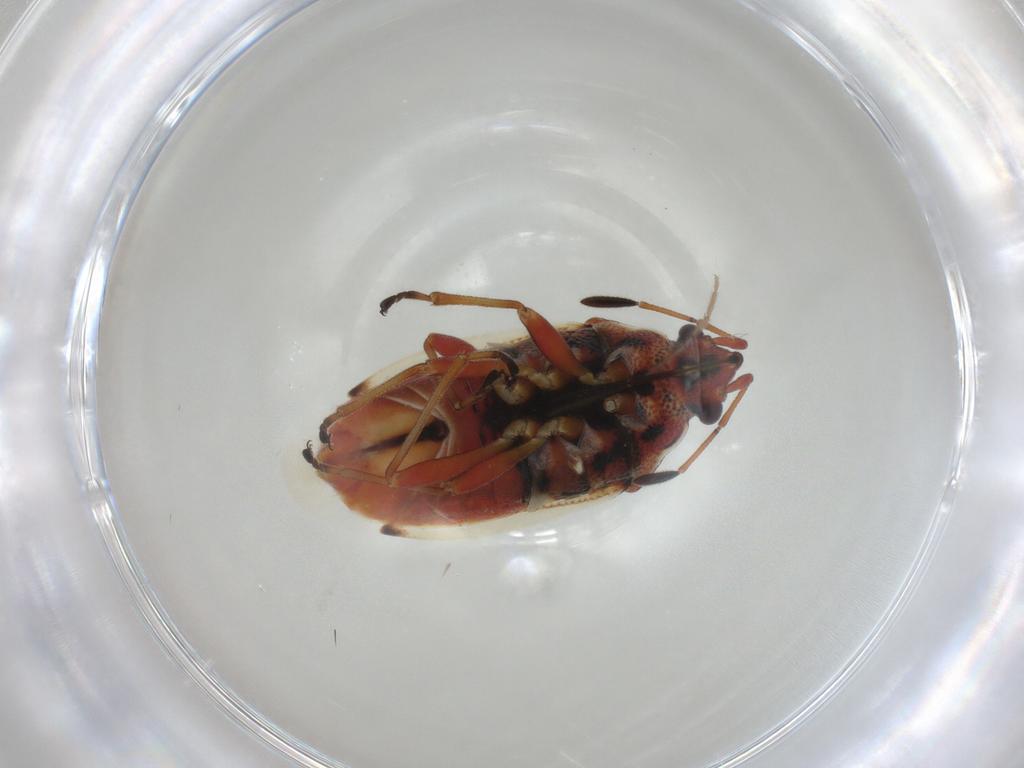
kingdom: Animalia
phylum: Arthropoda
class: Insecta
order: Hemiptera
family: Lygaeidae
